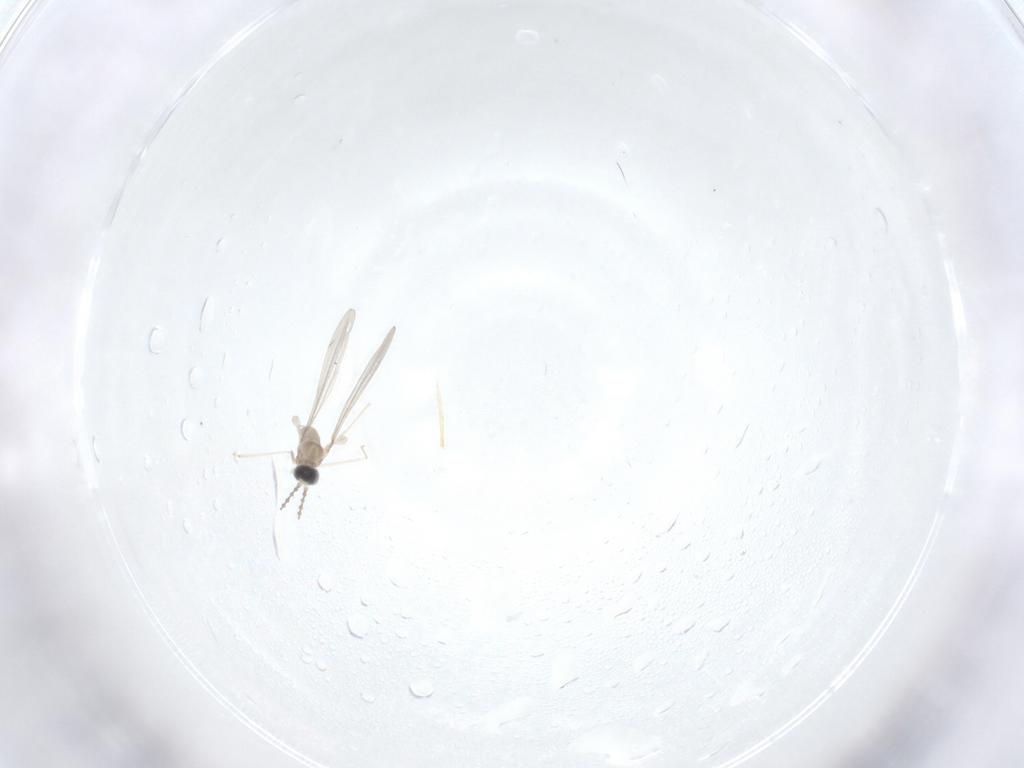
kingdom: Animalia
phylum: Arthropoda
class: Insecta
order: Diptera
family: Cecidomyiidae
